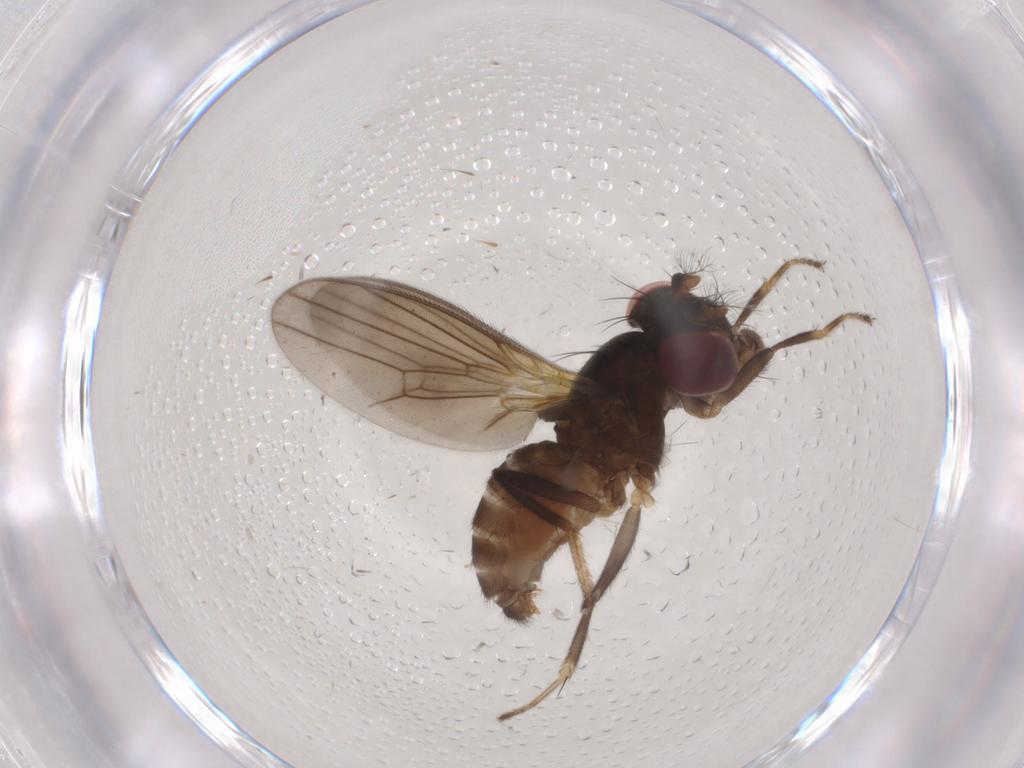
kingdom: Animalia
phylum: Arthropoda
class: Insecta
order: Diptera
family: Drosophilidae
